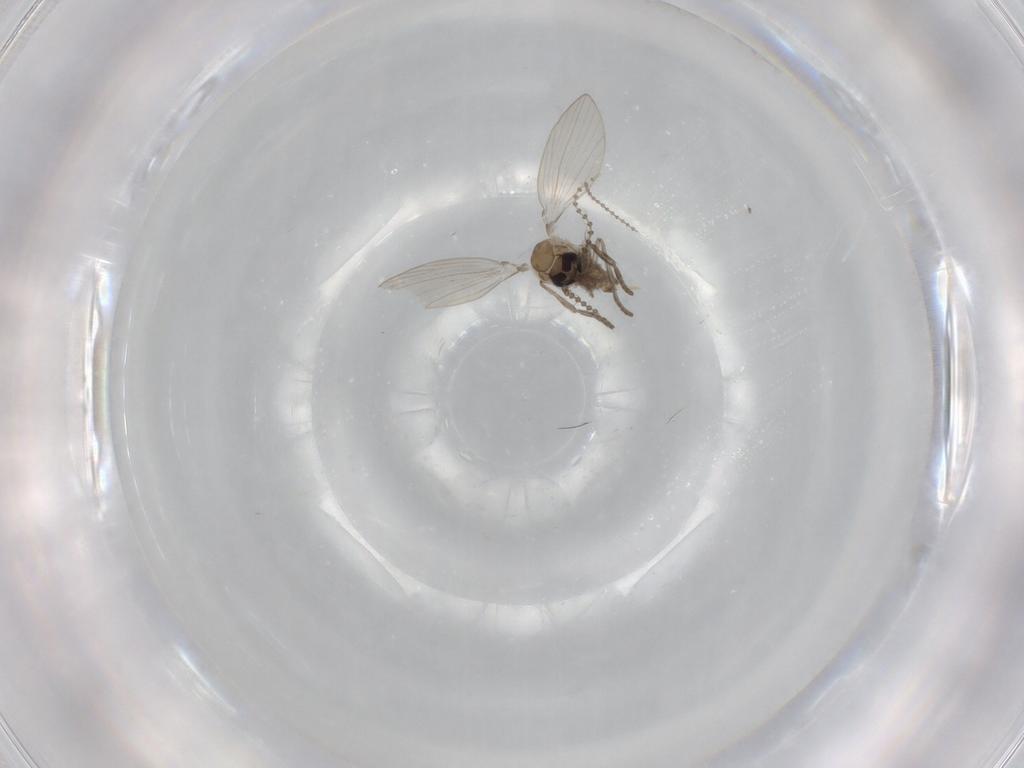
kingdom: Animalia
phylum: Arthropoda
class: Insecta
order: Diptera
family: Psychodidae
